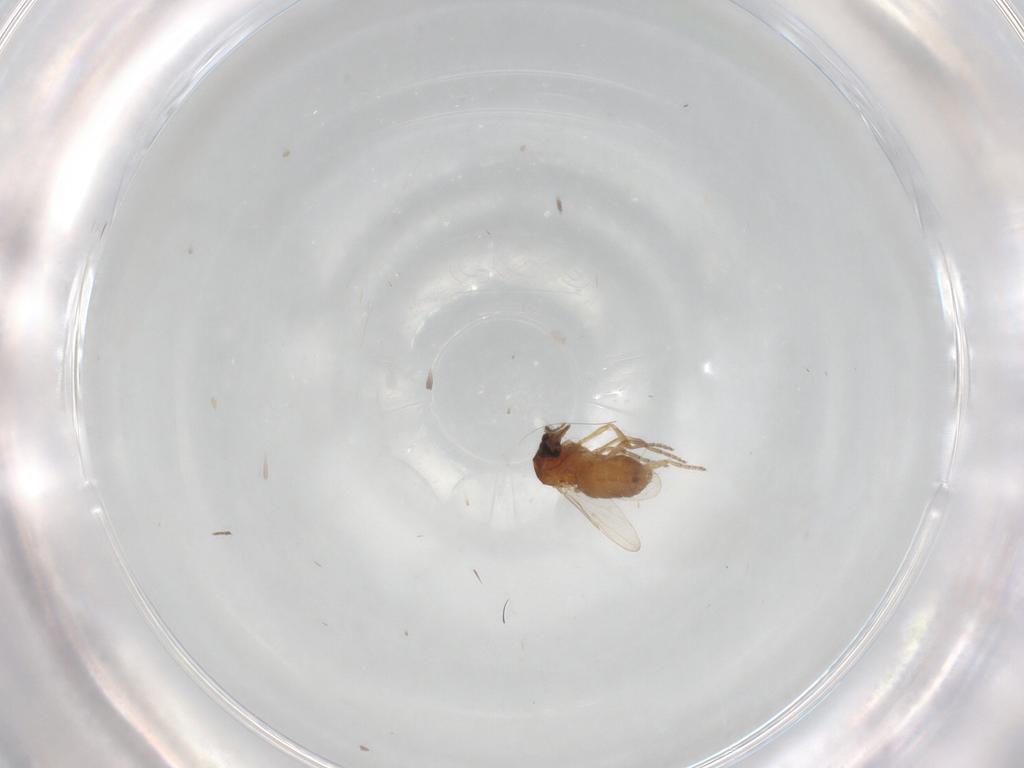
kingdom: Animalia
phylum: Arthropoda
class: Insecta
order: Diptera
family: Ceratopogonidae
